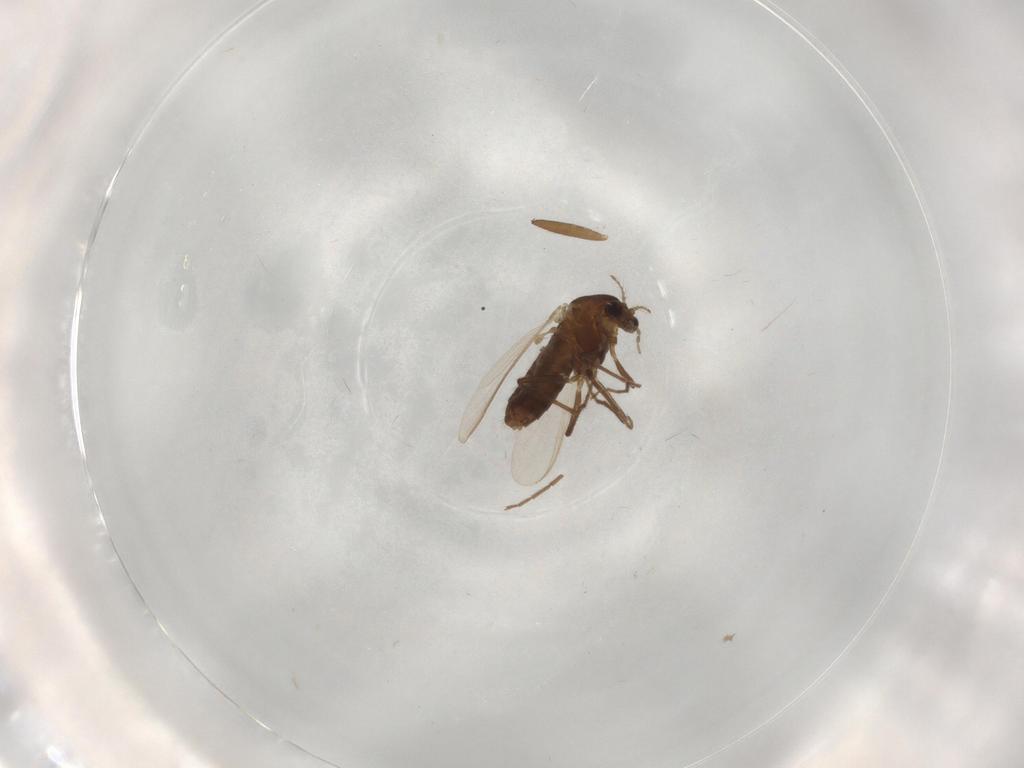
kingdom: Animalia
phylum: Arthropoda
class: Insecta
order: Diptera
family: Chironomidae
